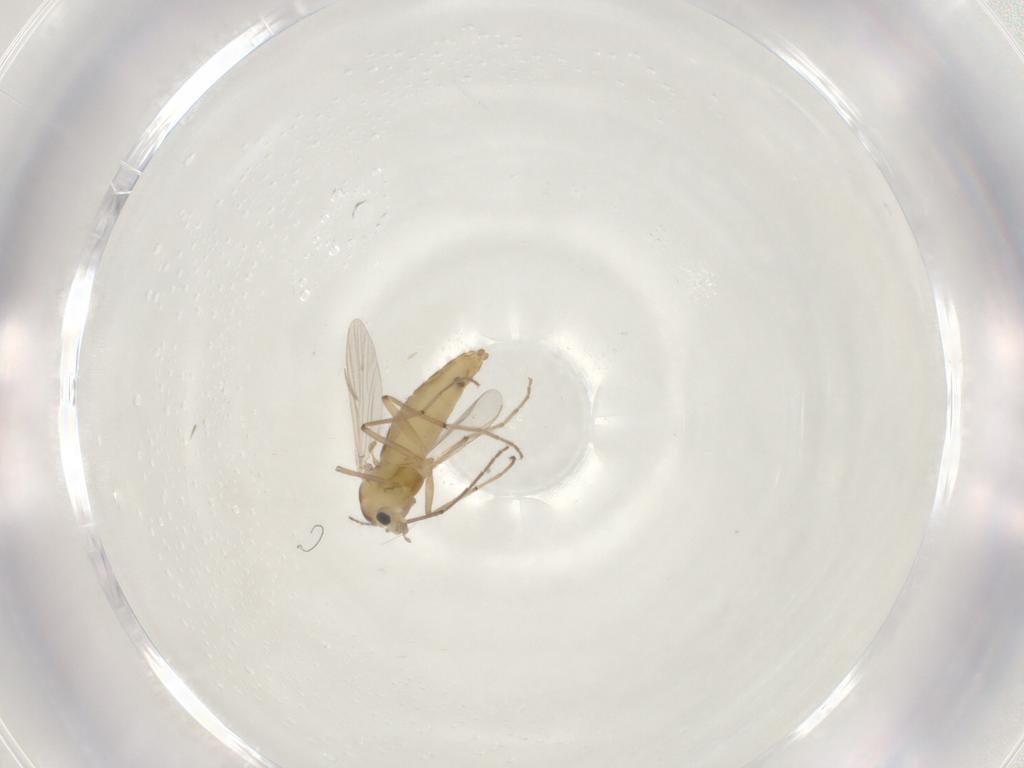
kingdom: Animalia
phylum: Arthropoda
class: Insecta
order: Diptera
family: Chironomidae
